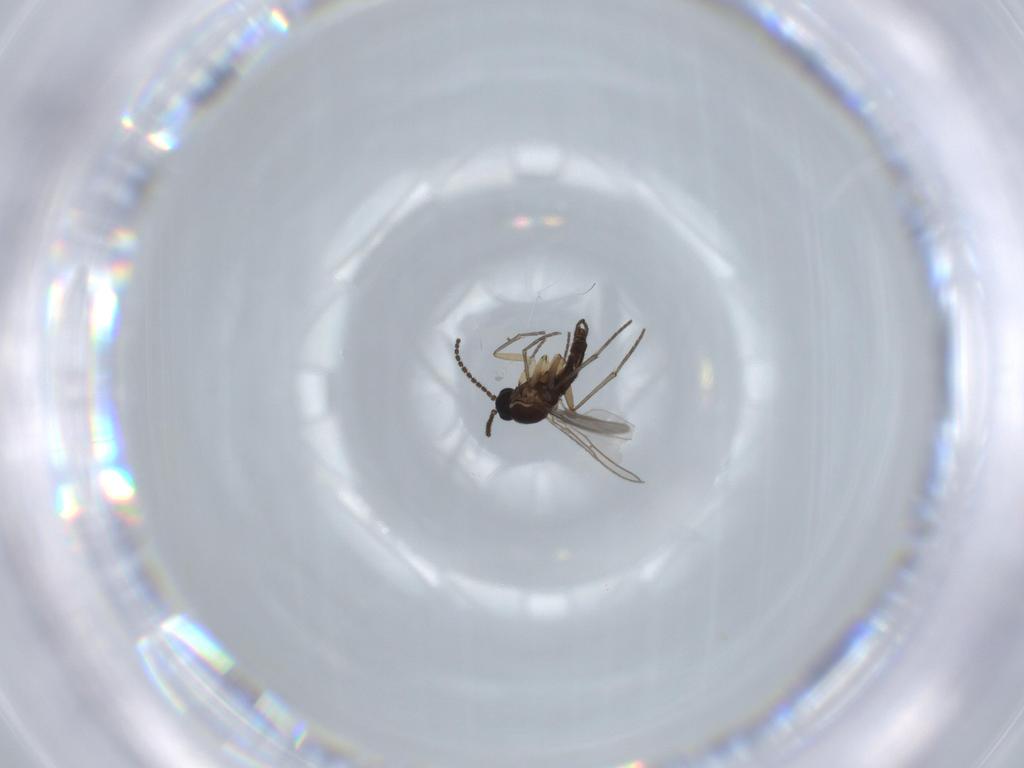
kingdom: Animalia
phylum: Arthropoda
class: Insecta
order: Diptera
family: Sciaridae
